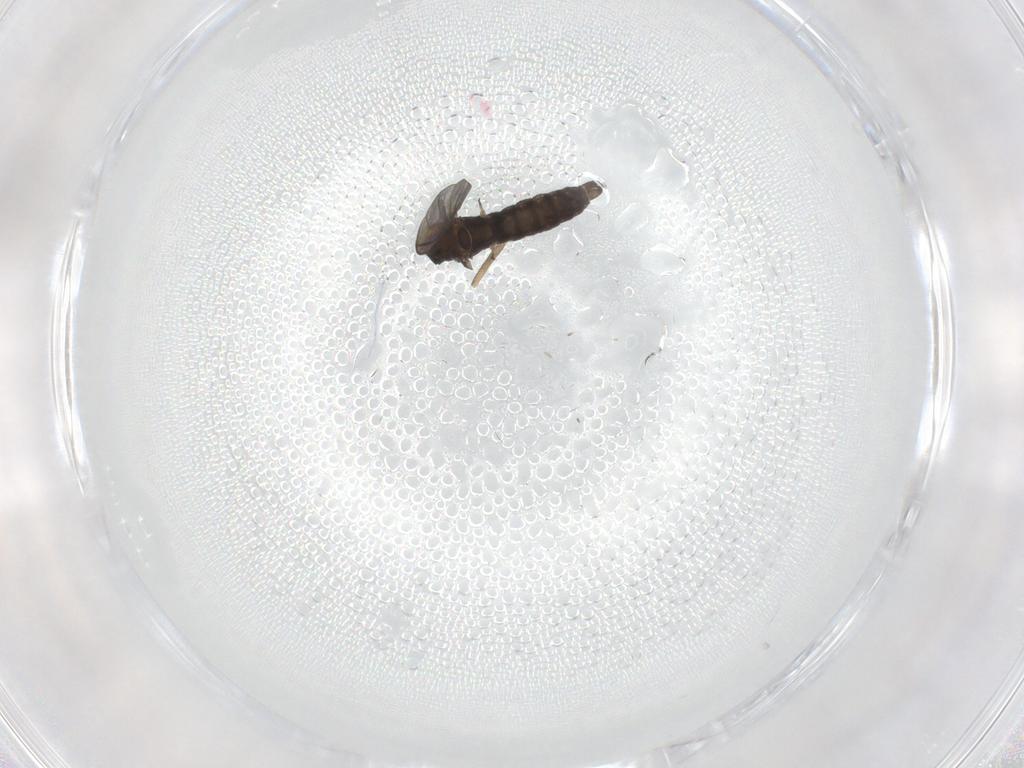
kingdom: Animalia
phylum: Arthropoda
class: Insecta
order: Diptera
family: Sciaridae
